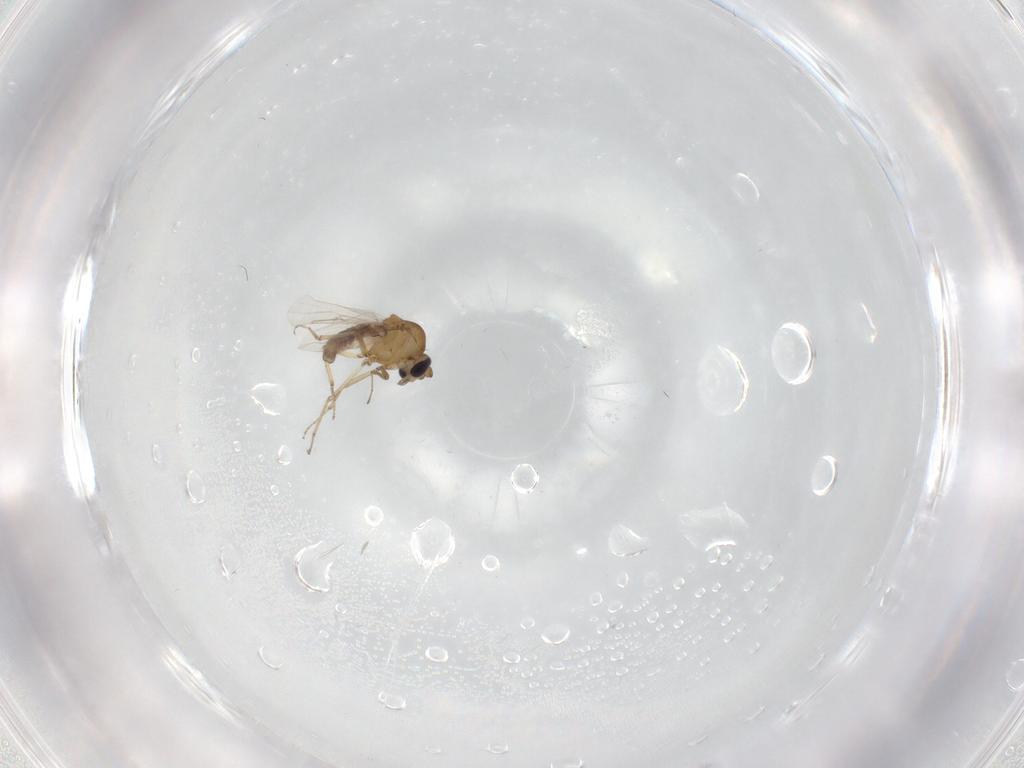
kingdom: Animalia
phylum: Arthropoda
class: Insecta
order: Diptera
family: Ceratopogonidae
